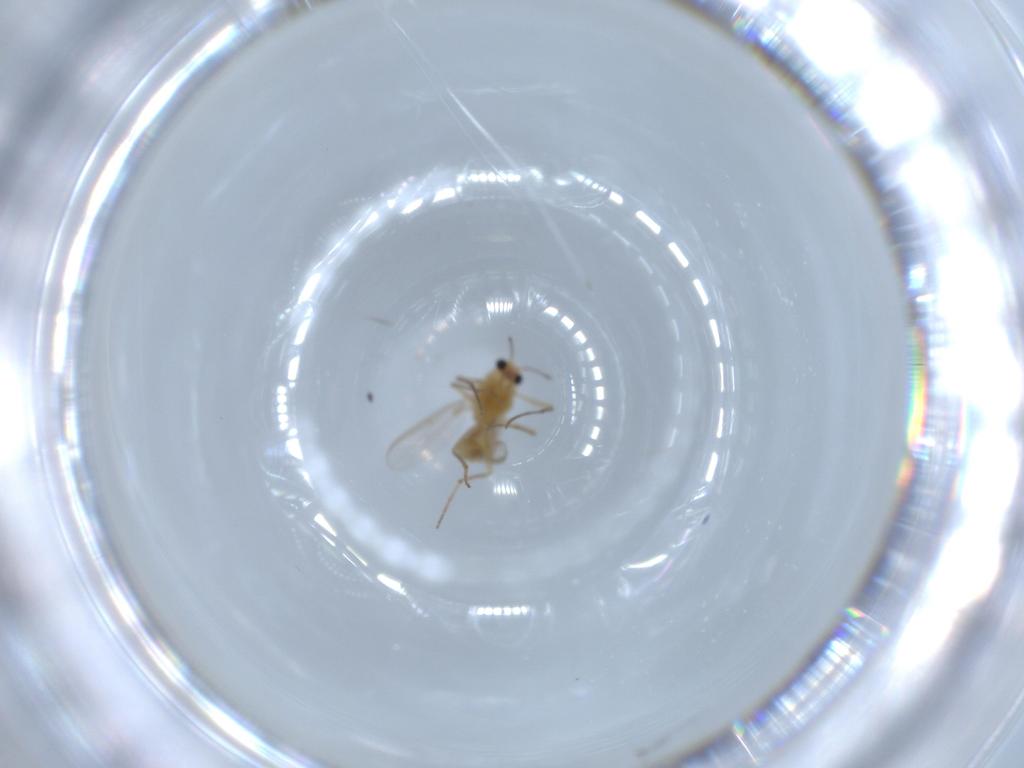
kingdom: Animalia
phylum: Arthropoda
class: Insecta
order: Diptera
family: Chironomidae
